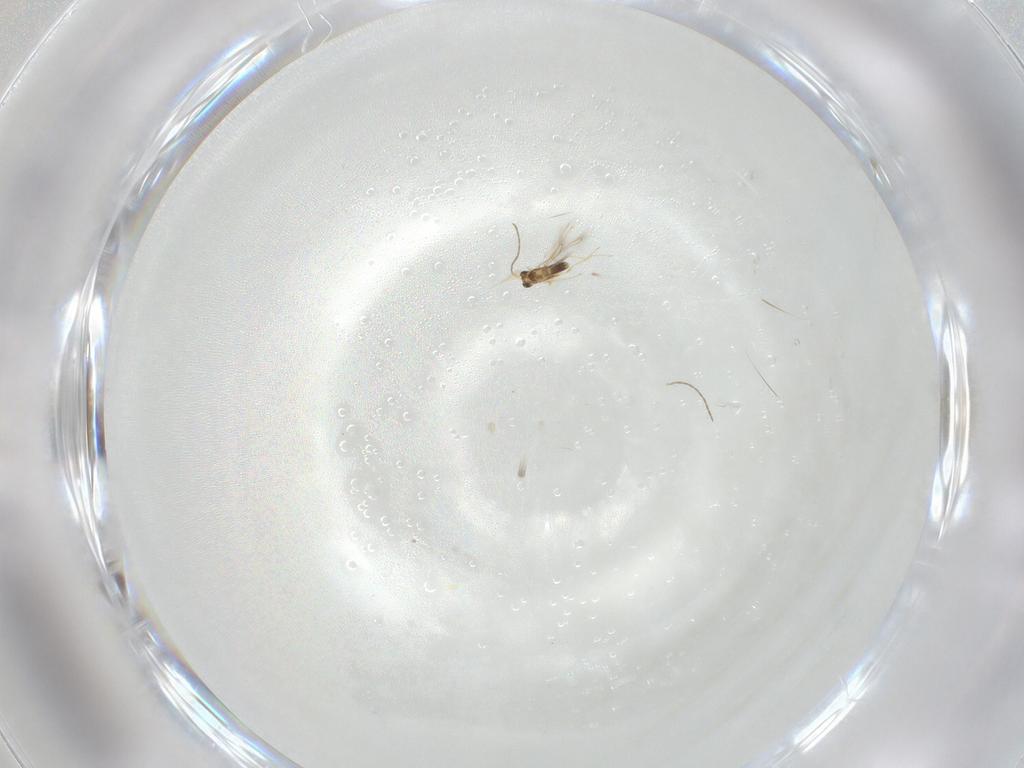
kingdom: Animalia
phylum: Arthropoda
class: Insecta
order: Hymenoptera
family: Mymaridae
